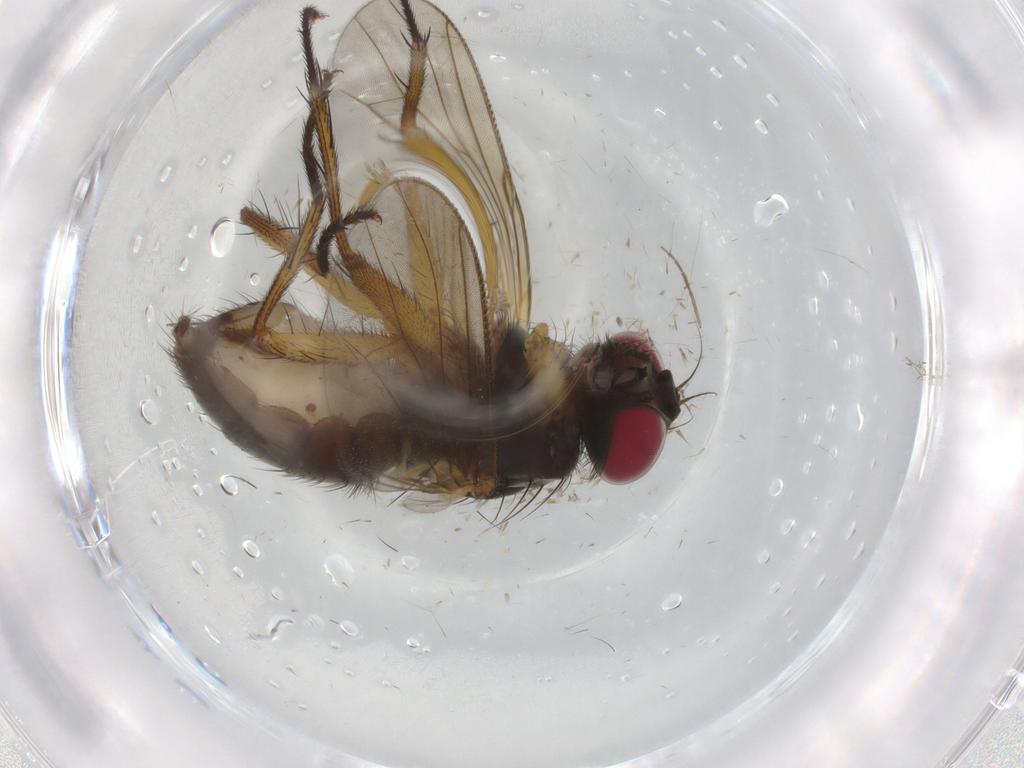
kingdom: Animalia
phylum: Arthropoda
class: Insecta
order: Diptera
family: Muscidae
